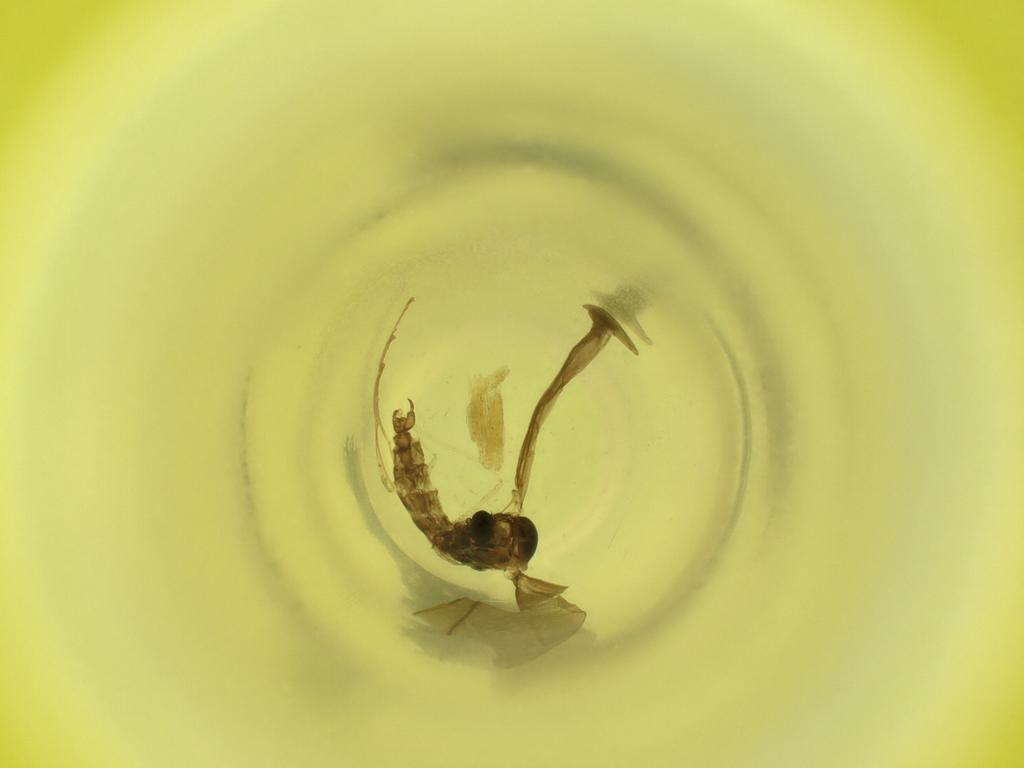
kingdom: Animalia
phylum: Arthropoda
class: Insecta
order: Diptera
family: Cecidomyiidae
